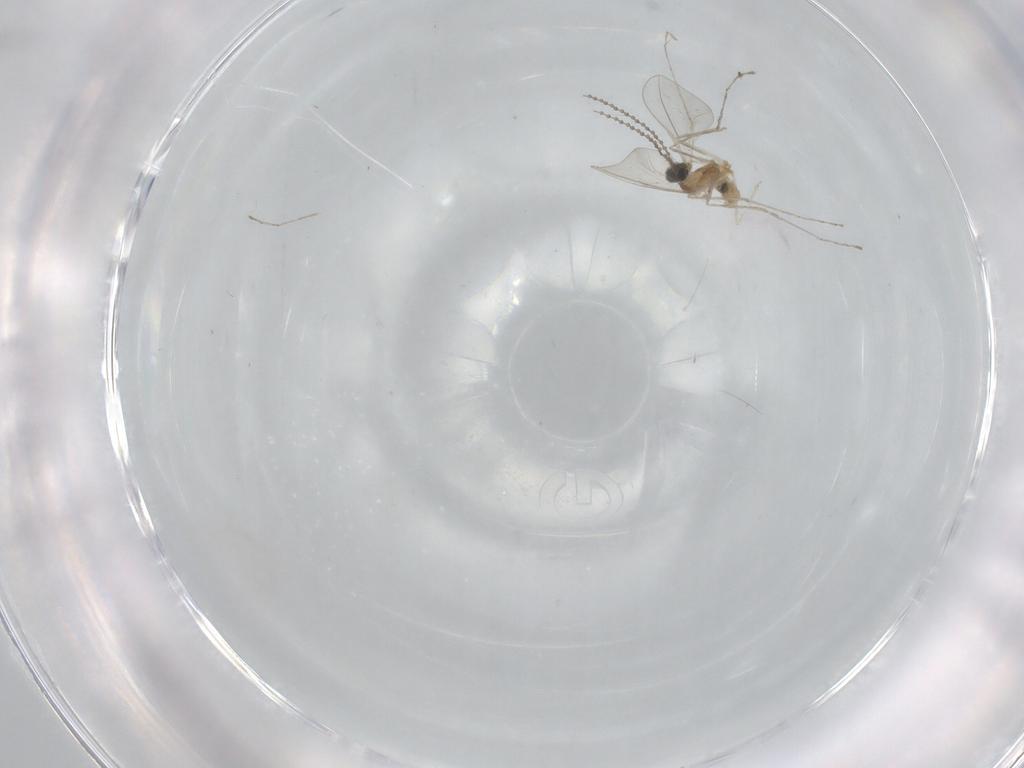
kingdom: Animalia
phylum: Arthropoda
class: Insecta
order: Diptera
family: Cecidomyiidae
